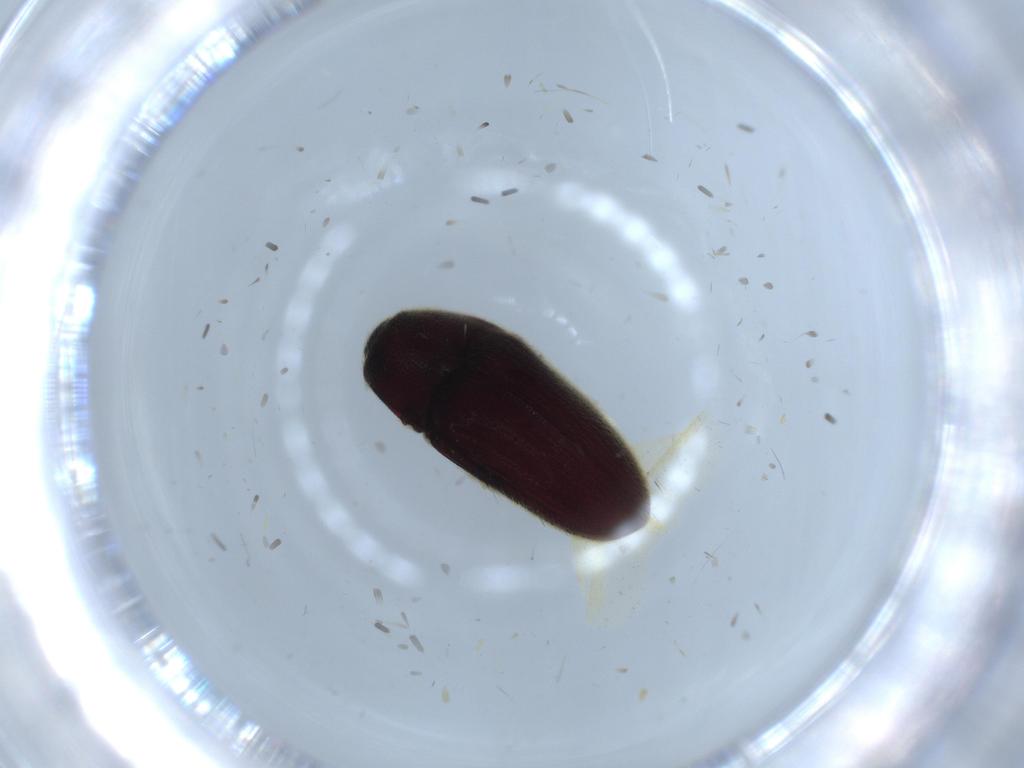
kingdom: Animalia
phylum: Arthropoda
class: Insecta
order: Coleoptera
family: Throscidae
